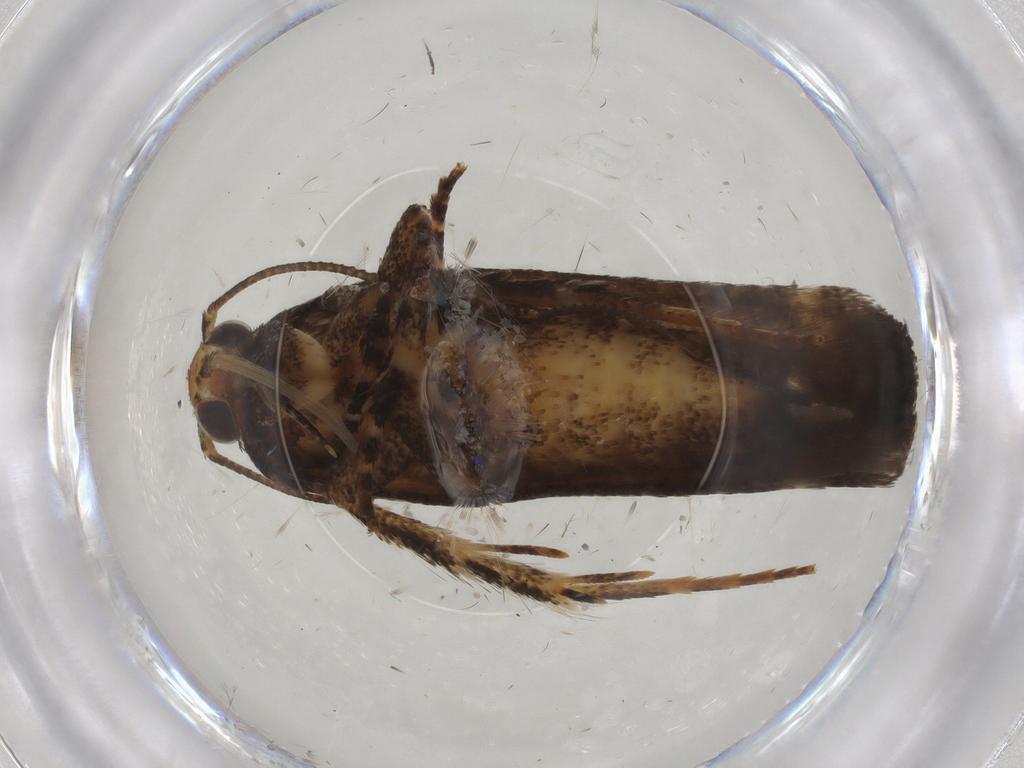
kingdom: Animalia
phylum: Arthropoda
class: Insecta
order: Lepidoptera
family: Gelechiidae
